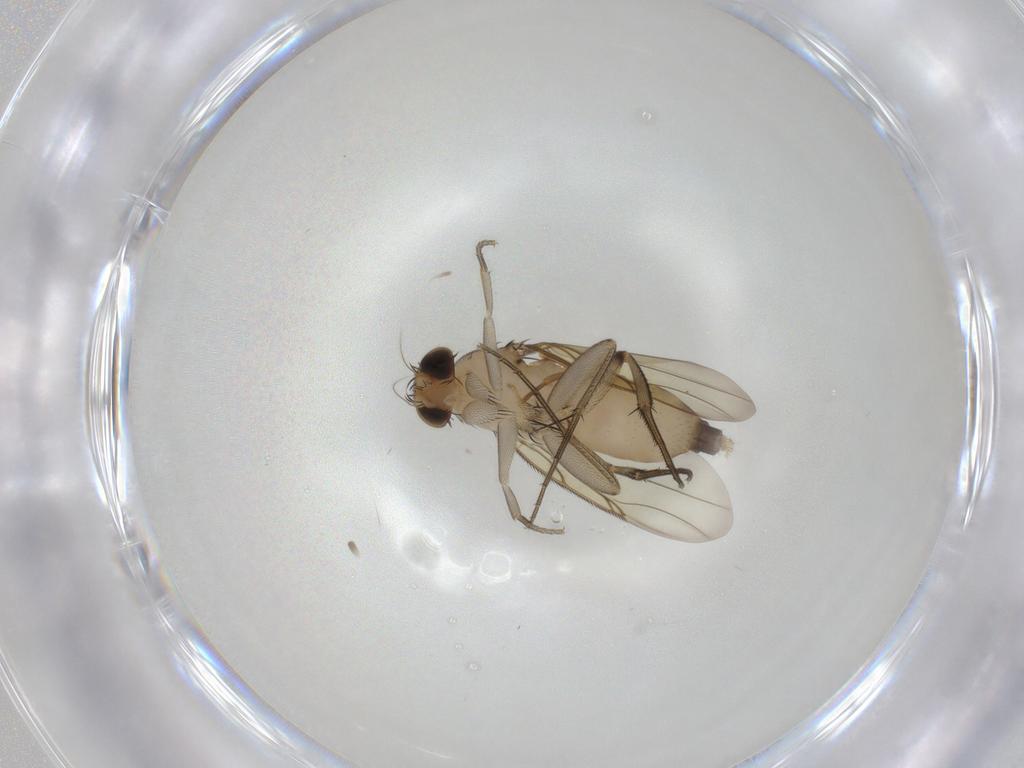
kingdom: Animalia
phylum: Arthropoda
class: Insecta
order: Diptera
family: Phoridae
